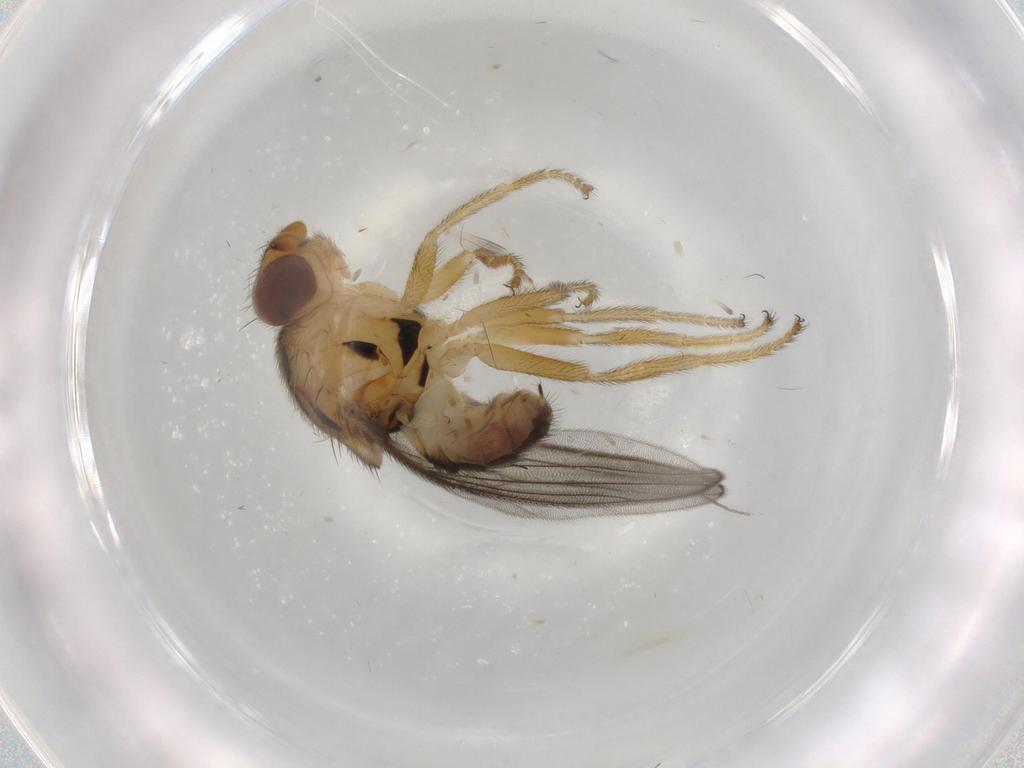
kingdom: Animalia
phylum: Arthropoda
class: Insecta
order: Diptera
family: Chloropidae
